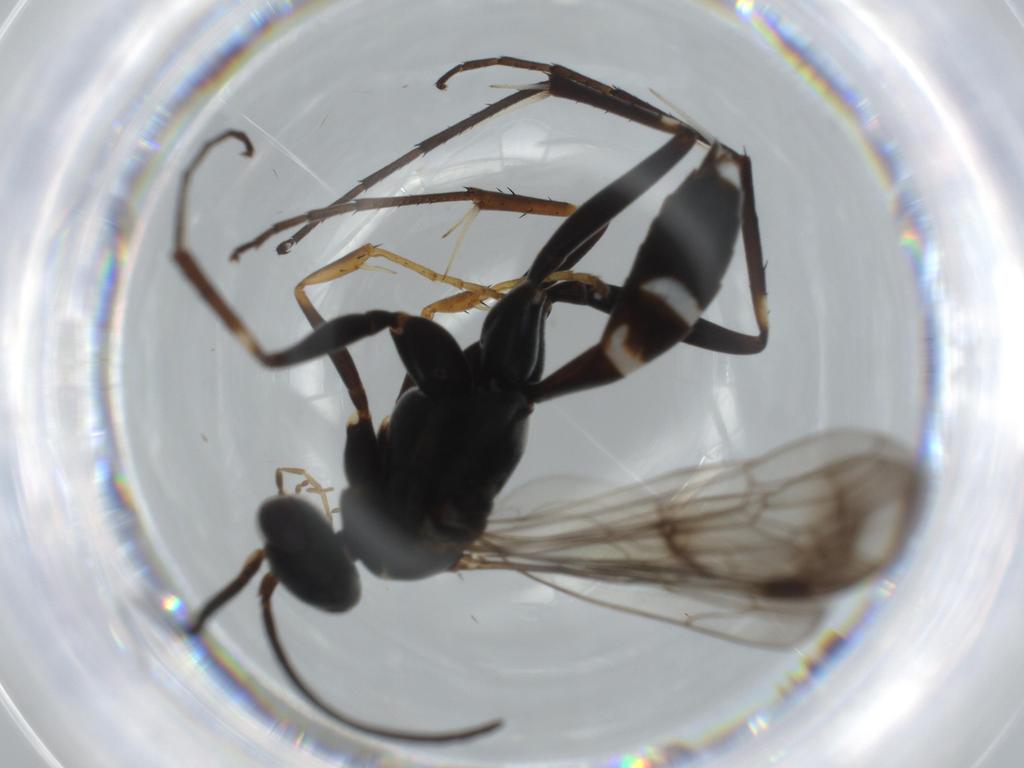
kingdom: Animalia
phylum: Arthropoda
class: Insecta
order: Hymenoptera
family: Pompilidae
